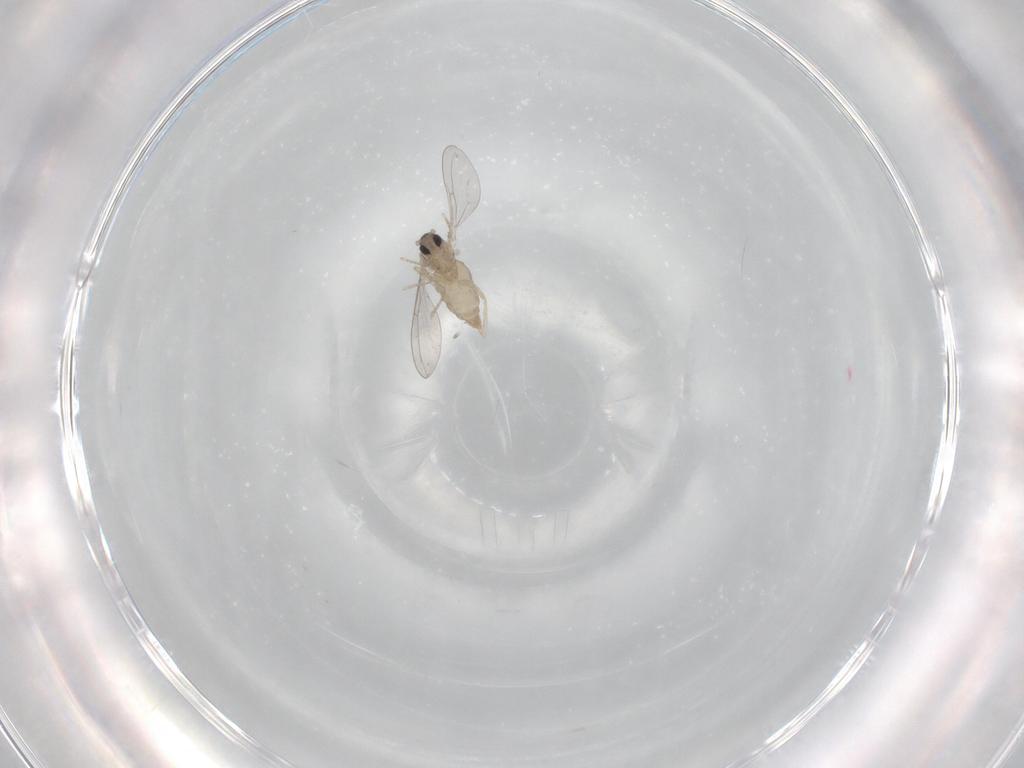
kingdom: Animalia
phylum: Arthropoda
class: Insecta
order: Diptera
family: Cecidomyiidae
